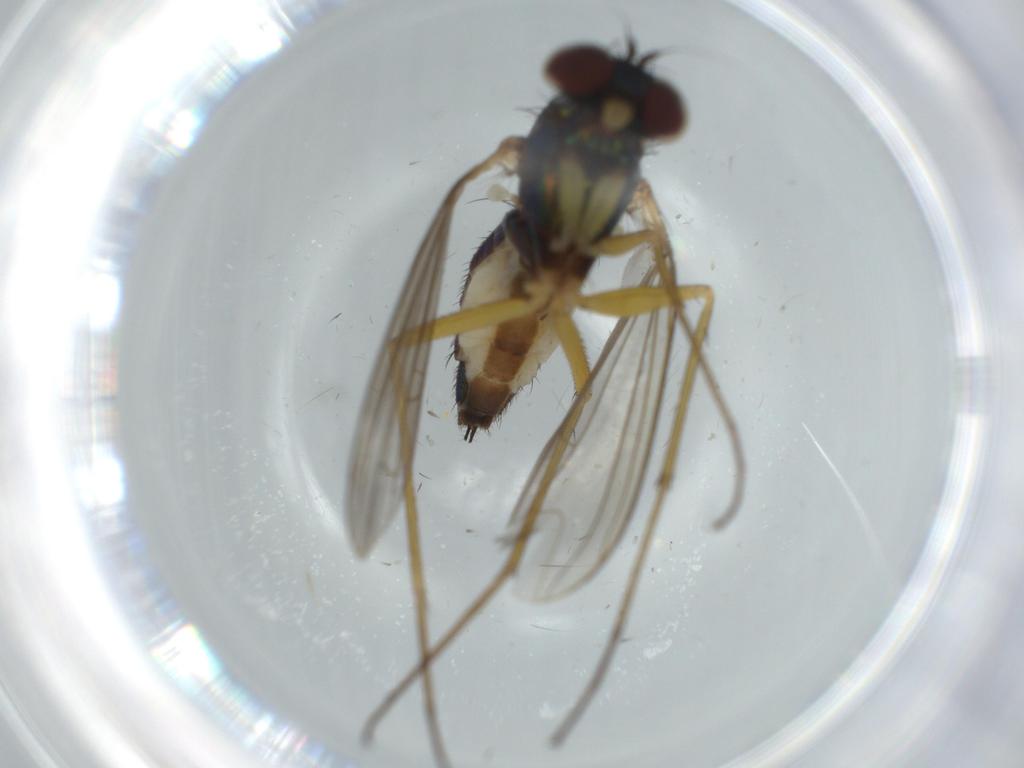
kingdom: Animalia
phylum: Arthropoda
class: Insecta
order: Diptera
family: Dolichopodidae
